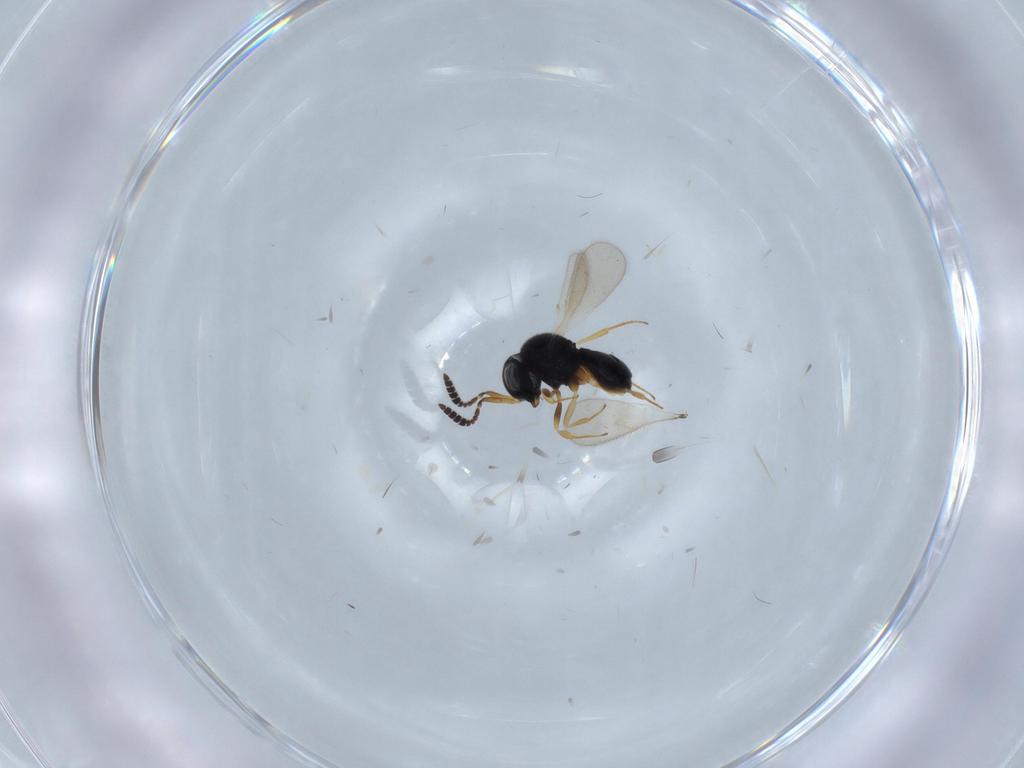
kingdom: Animalia
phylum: Arthropoda
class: Insecta
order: Hymenoptera
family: Scelionidae
